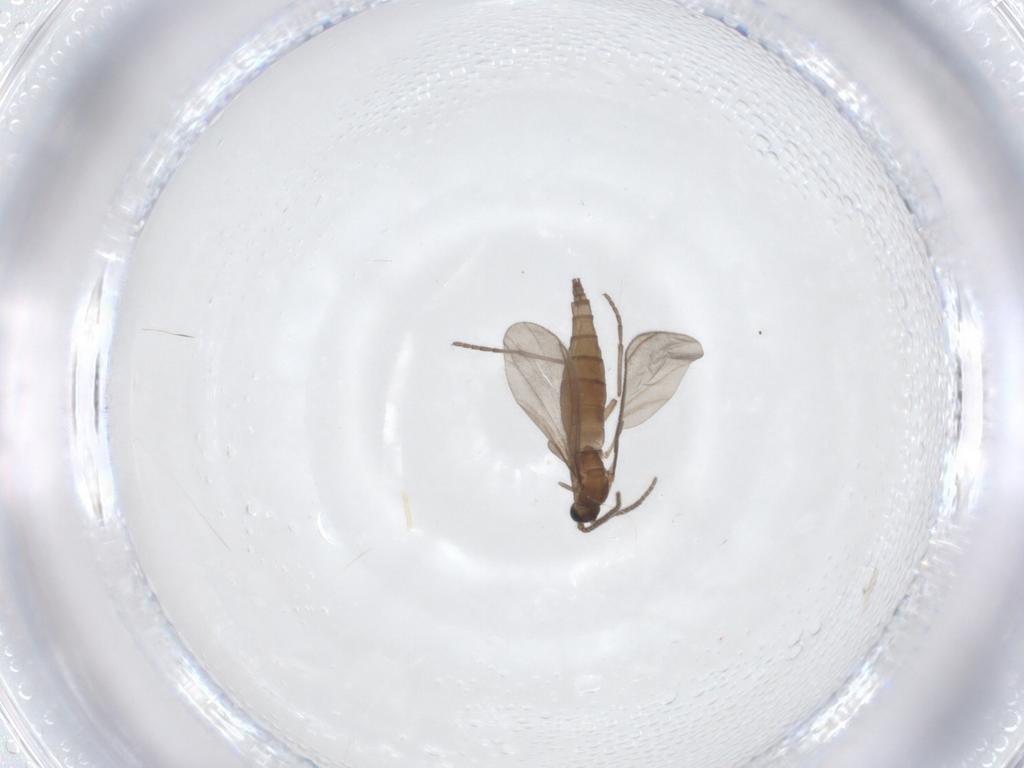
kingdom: Animalia
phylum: Arthropoda
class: Insecta
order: Diptera
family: Sciaridae
